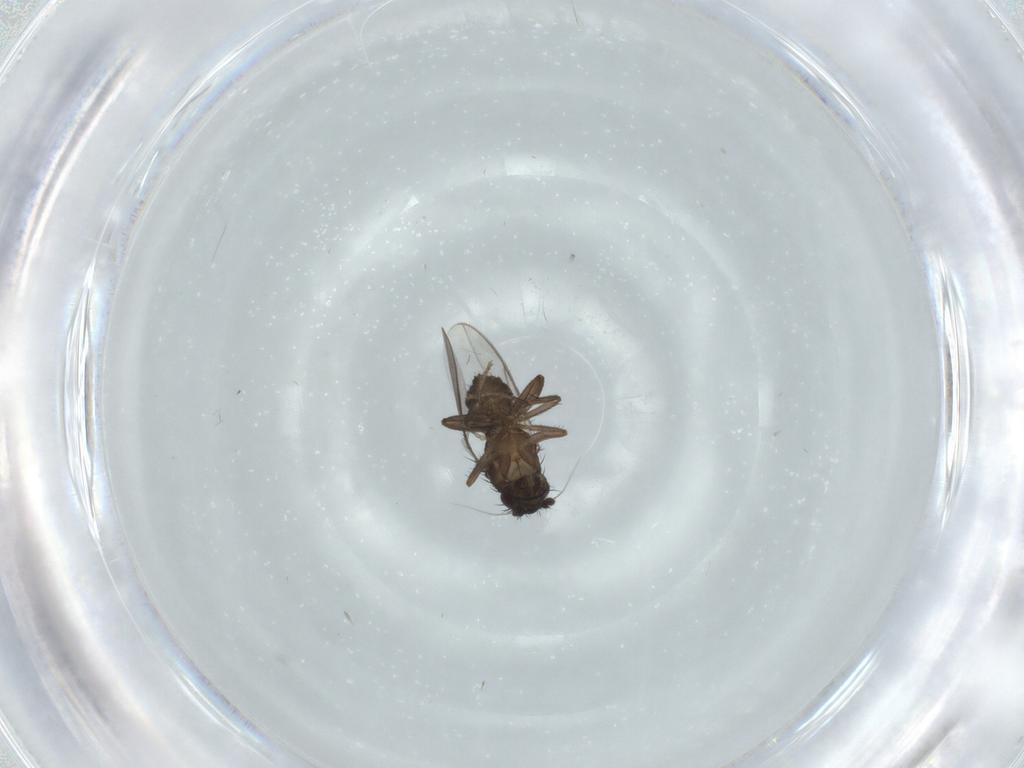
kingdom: Animalia
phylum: Arthropoda
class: Insecta
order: Diptera
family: Sphaeroceridae
